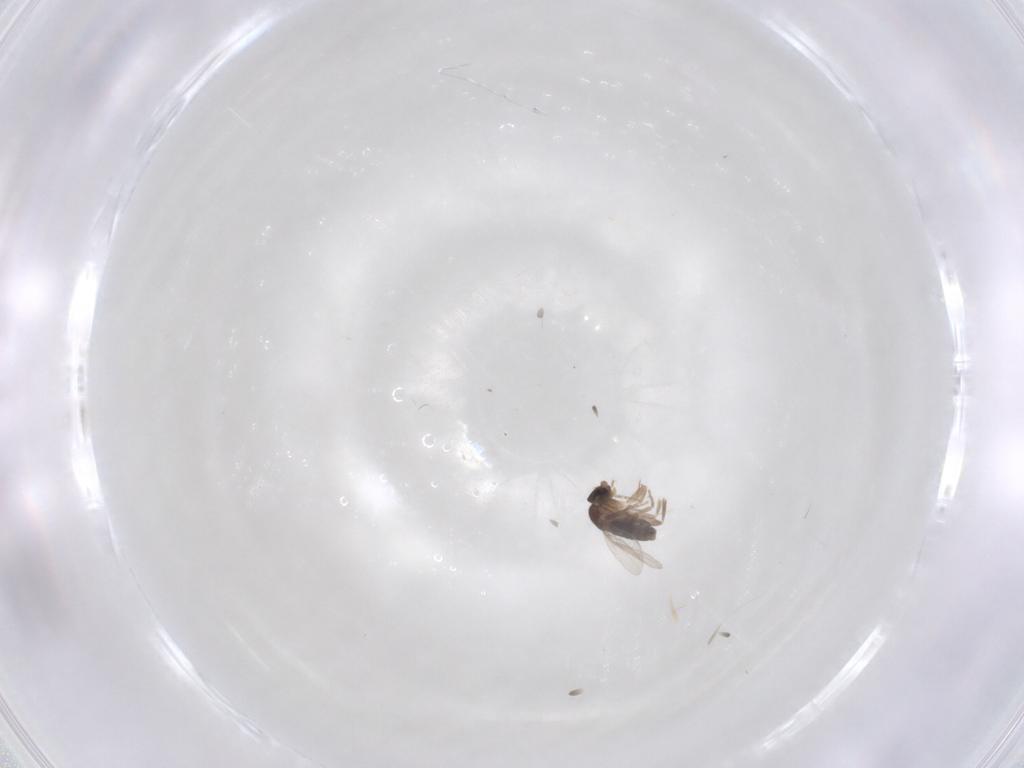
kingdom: Animalia
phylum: Arthropoda
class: Insecta
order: Diptera
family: Phoridae
